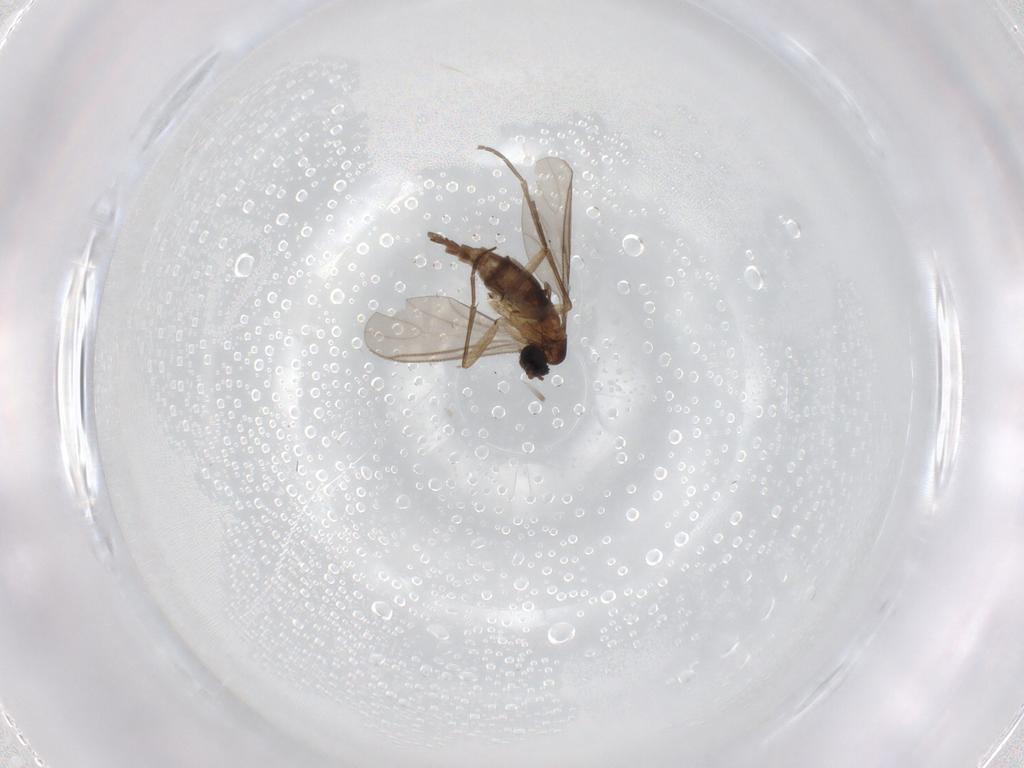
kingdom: Animalia
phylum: Arthropoda
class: Insecta
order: Diptera
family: Sciaridae
